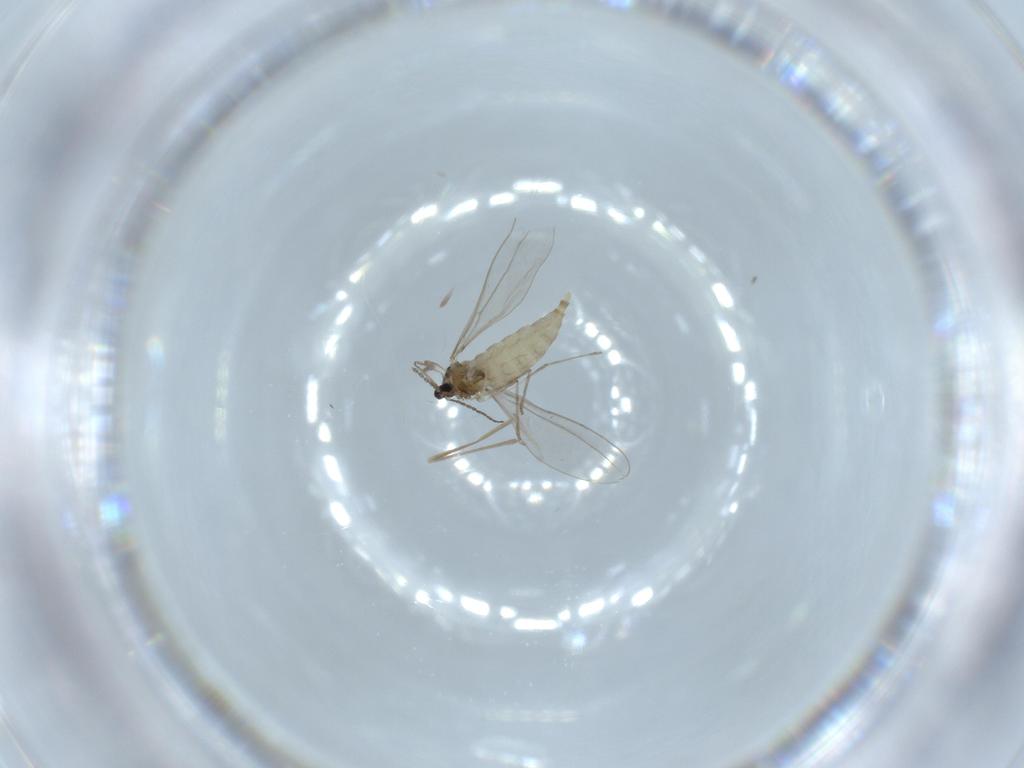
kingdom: Animalia
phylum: Arthropoda
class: Insecta
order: Diptera
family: Cecidomyiidae
